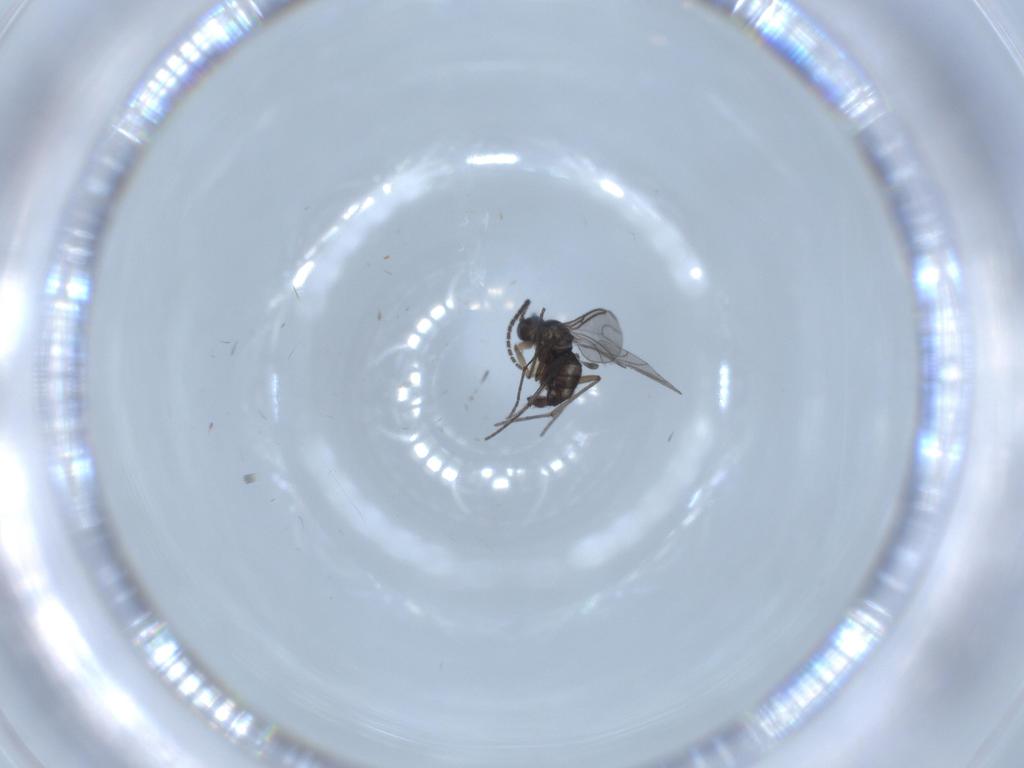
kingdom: Animalia
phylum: Arthropoda
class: Insecta
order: Diptera
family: Sciaridae
